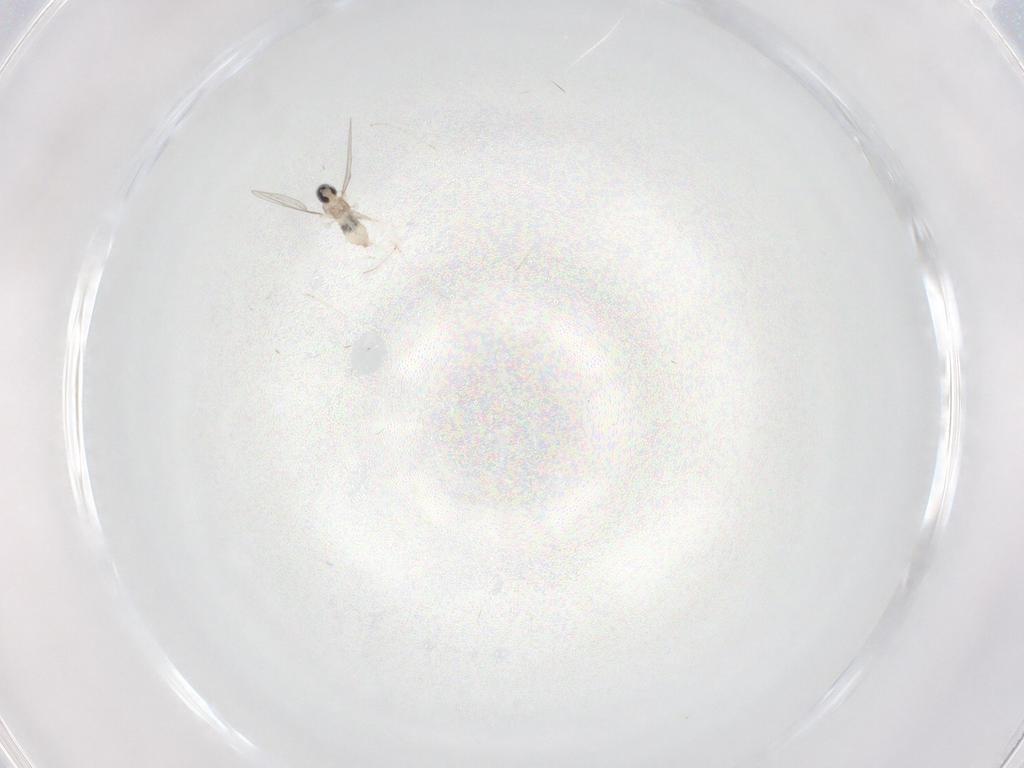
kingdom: Animalia
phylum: Arthropoda
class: Insecta
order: Diptera
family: Cecidomyiidae
